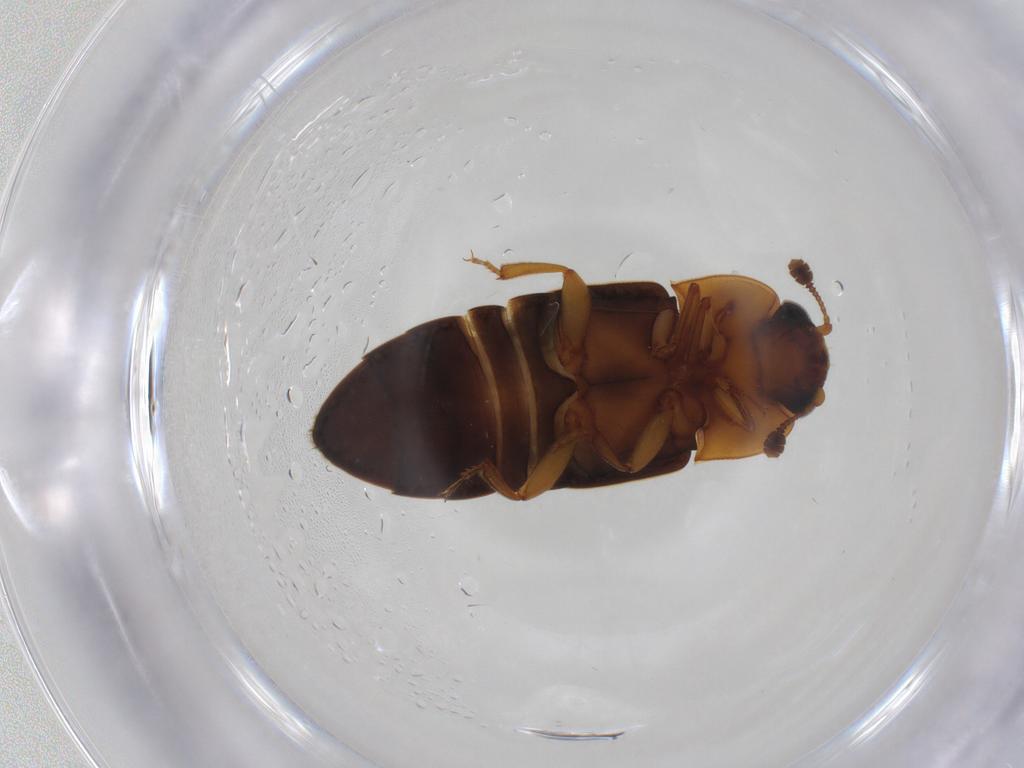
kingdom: Animalia
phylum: Arthropoda
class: Insecta
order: Coleoptera
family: Nitidulidae
